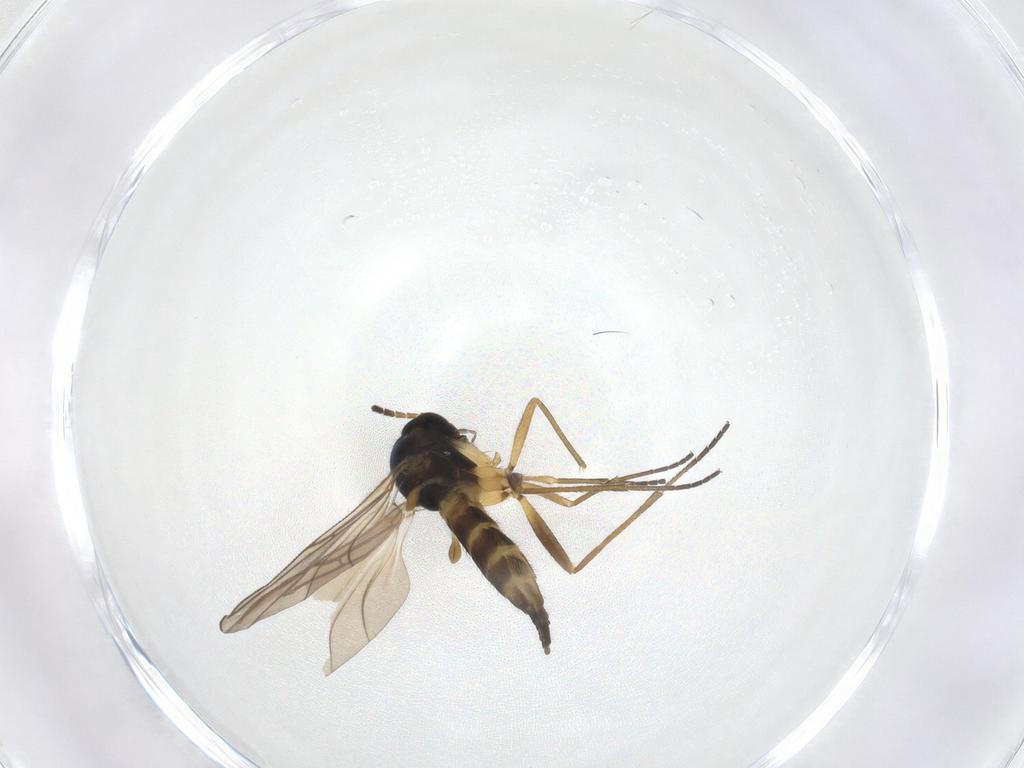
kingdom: Animalia
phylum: Arthropoda
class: Insecta
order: Diptera
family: Sciaridae
